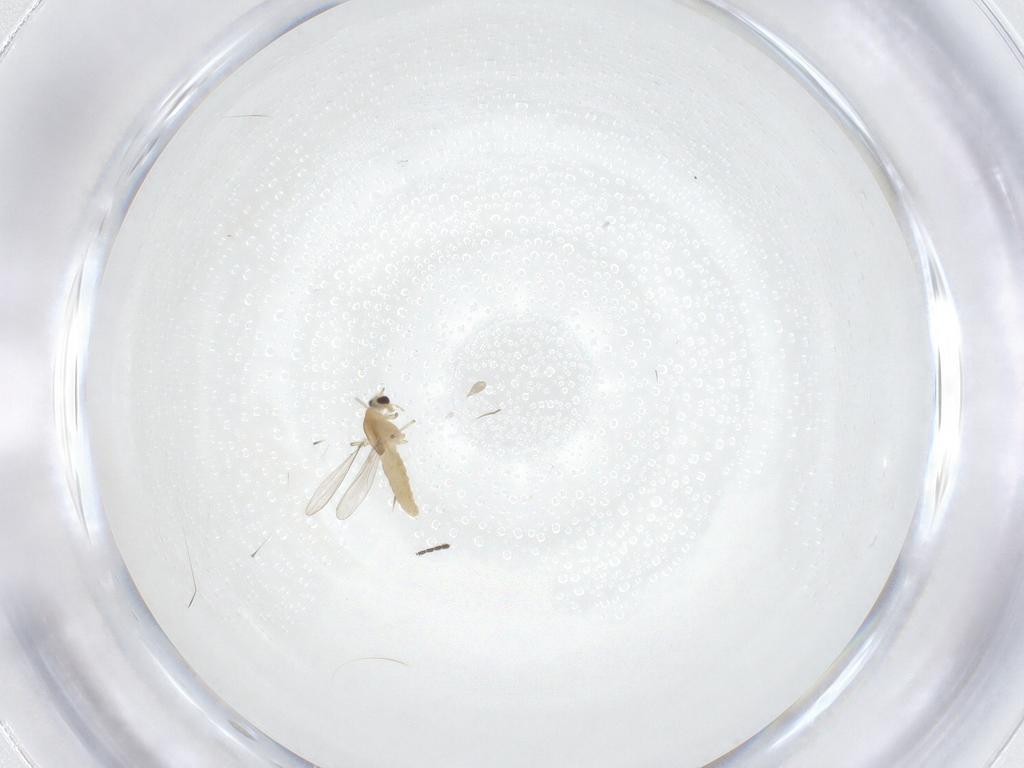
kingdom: Animalia
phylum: Arthropoda
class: Insecta
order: Diptera
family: Chironomidae
